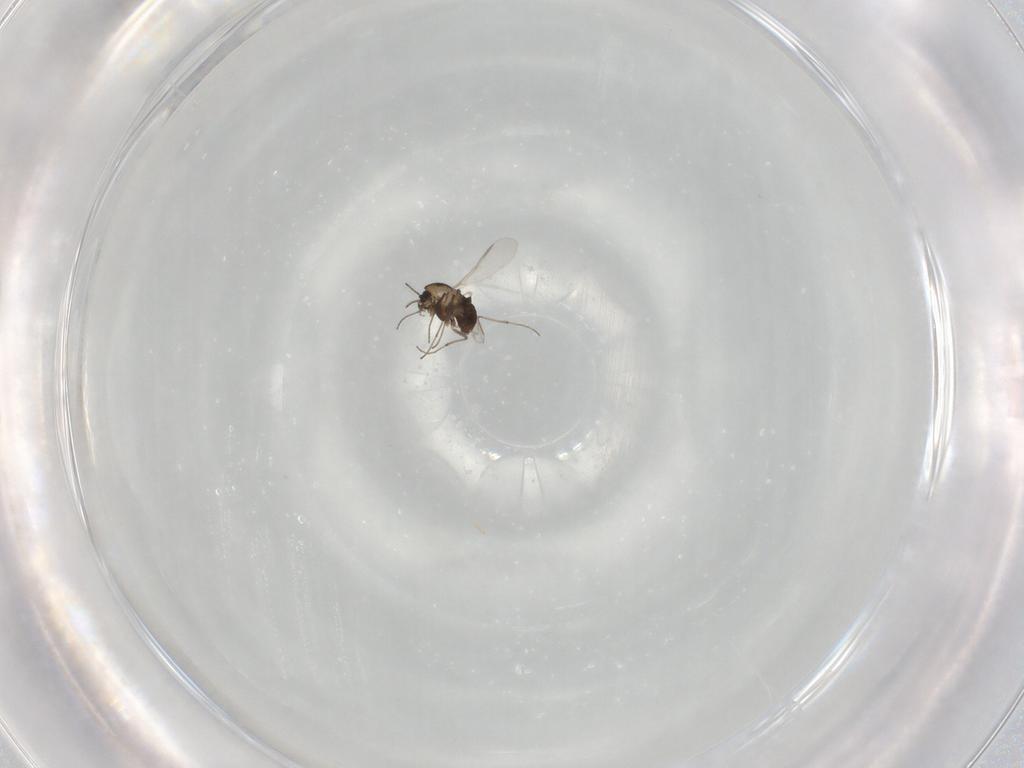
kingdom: Animalia
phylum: Arthropoda
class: Insecta
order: Diptera
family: Chironomidae
